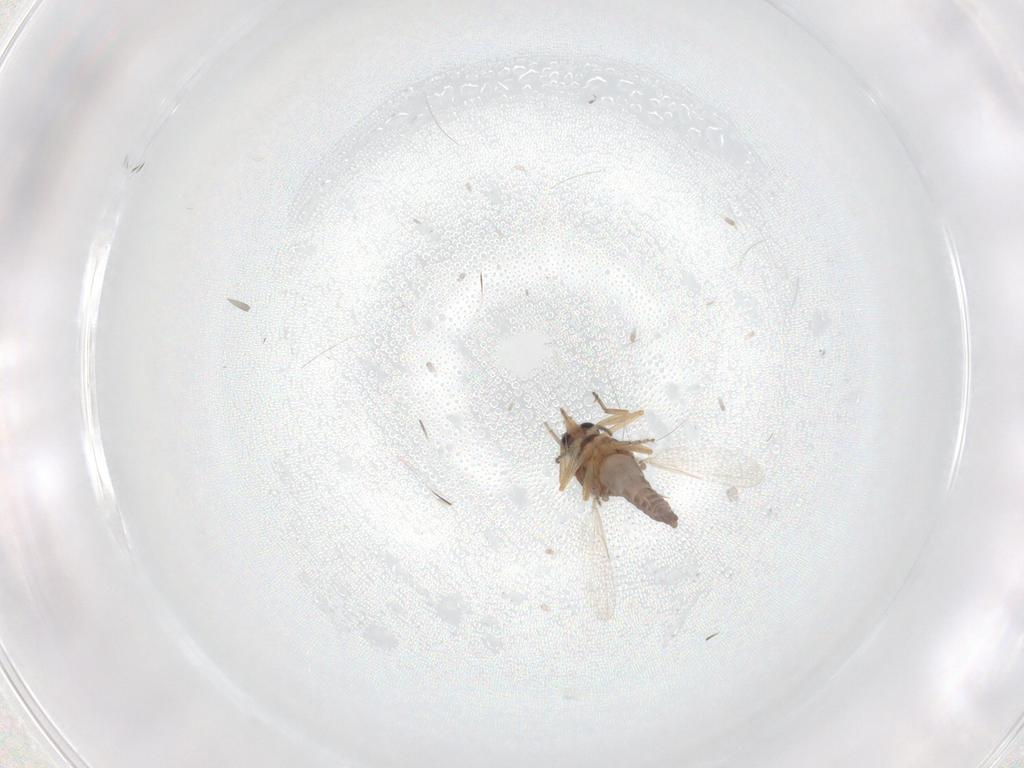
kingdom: Animalia
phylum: Arthropoda
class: Insecta
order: Diptera
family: Ceratopogonidae
